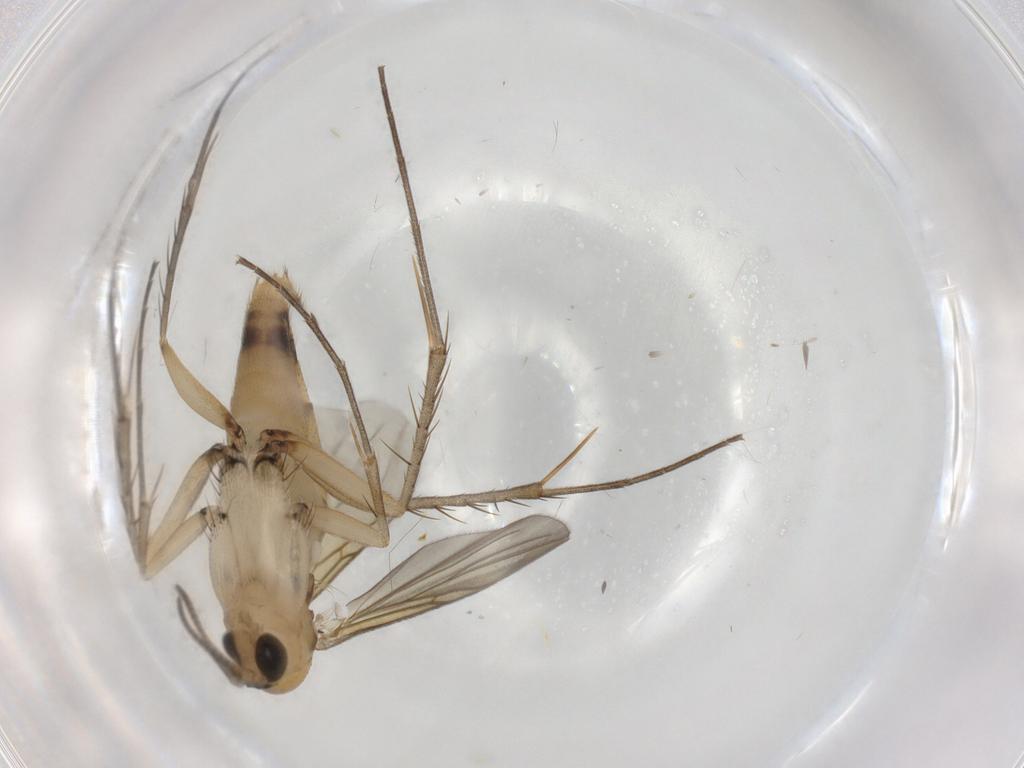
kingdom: Animalia
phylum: Arthropoda
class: Insecta
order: Diptera
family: Mycetophilidae
